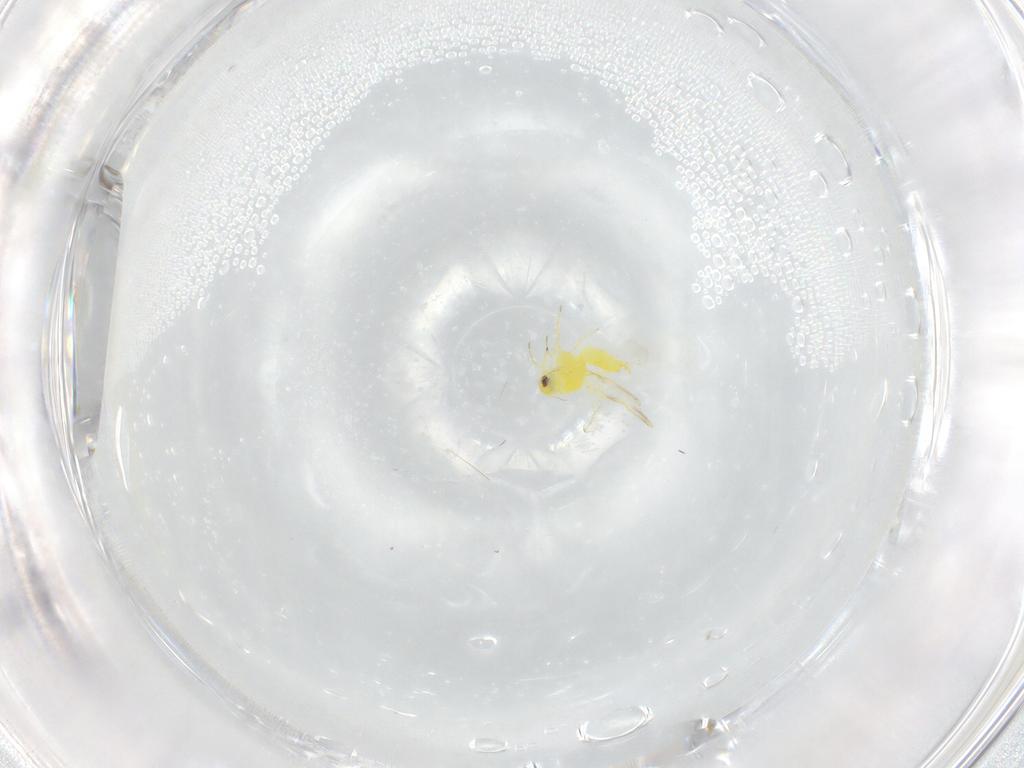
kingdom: Animalia
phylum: Arthropoda
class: Insecta
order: Hemiptera
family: Aleyrodidae
